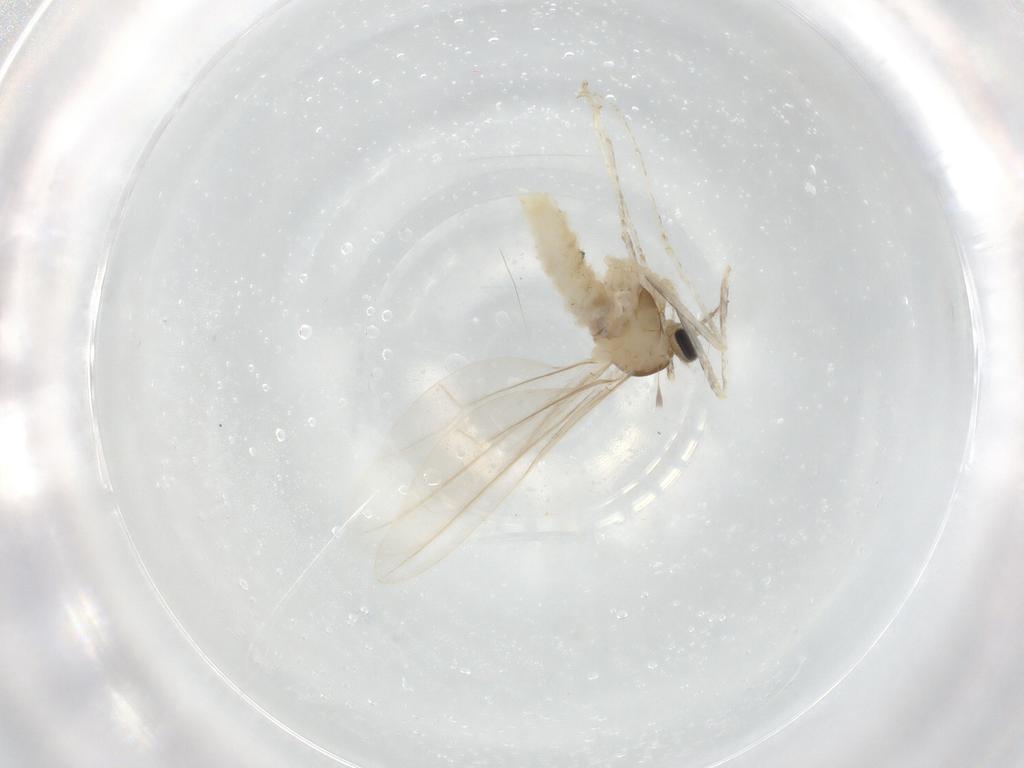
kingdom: Animalia
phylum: Arthropoda
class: Insecta
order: Diptera
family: Cecidomyiidae
